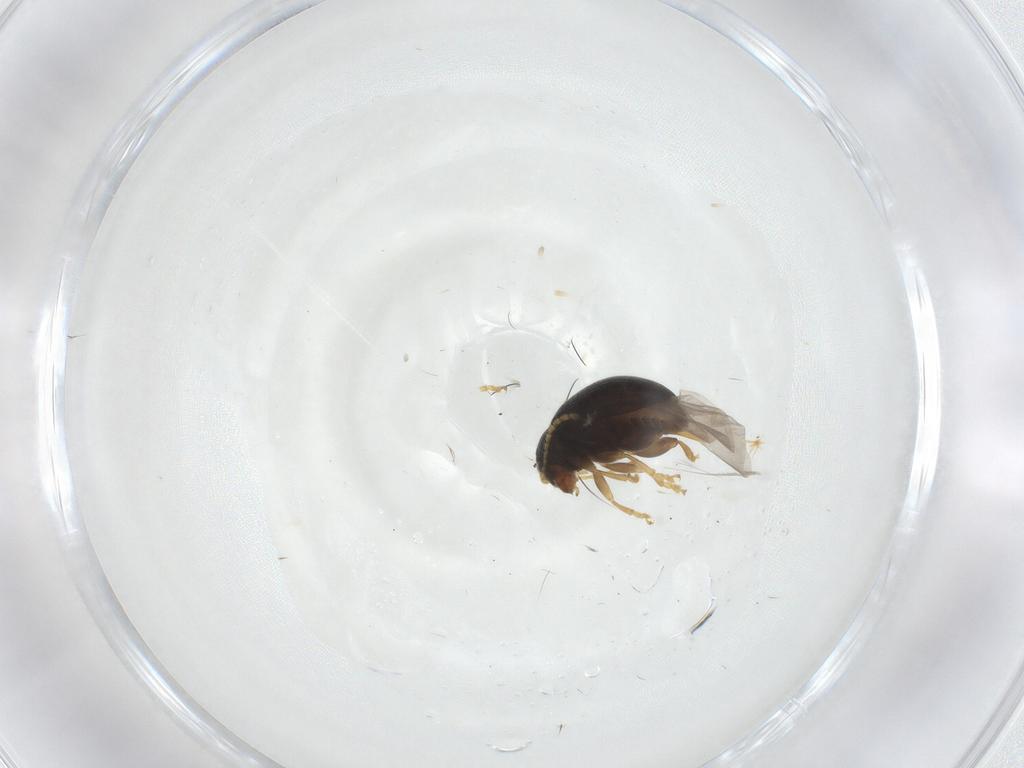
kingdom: Animalia
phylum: Arthropoda
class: Insecta
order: Coleoptera
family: Coccinellidae
